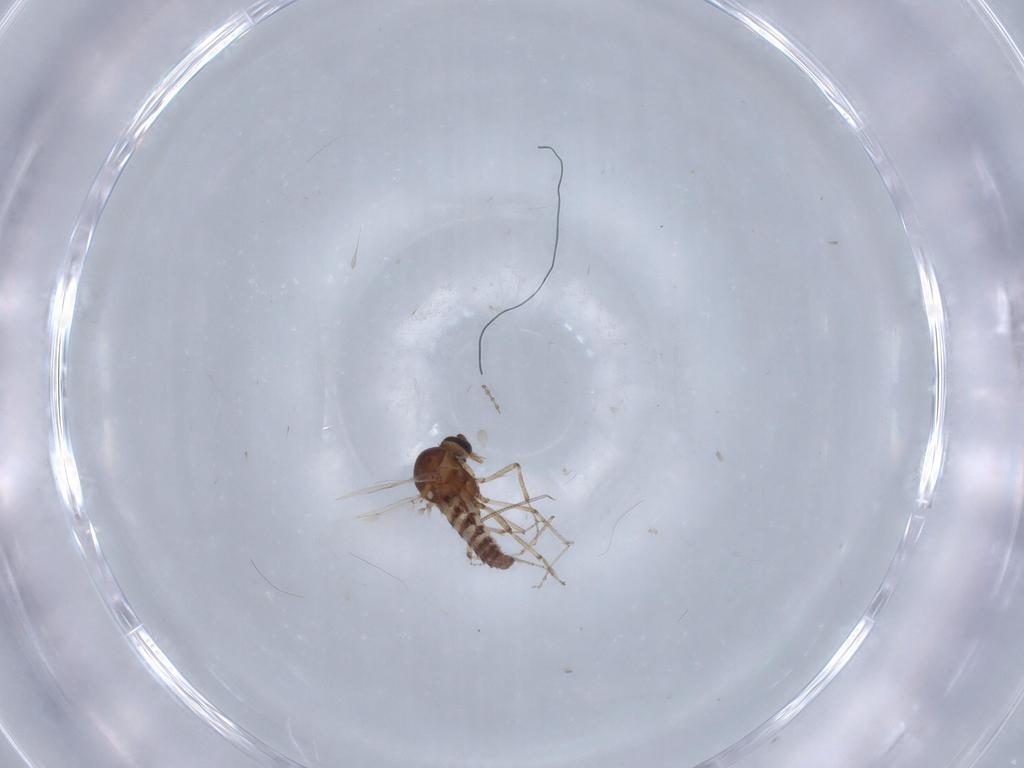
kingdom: Animalia
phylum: Arthropoda
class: Insecta
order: Diptera
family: Ceratopogonidae
